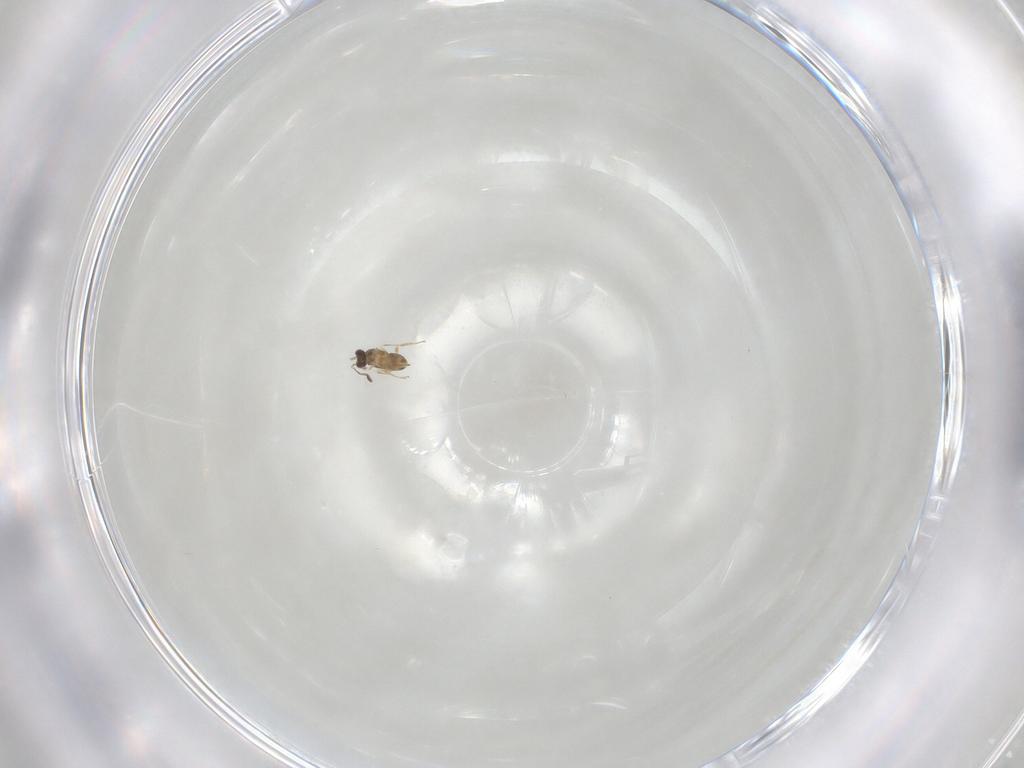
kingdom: Animalia
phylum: Arthropoda
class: Insecta
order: Hymenoptera
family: Mymaridae
